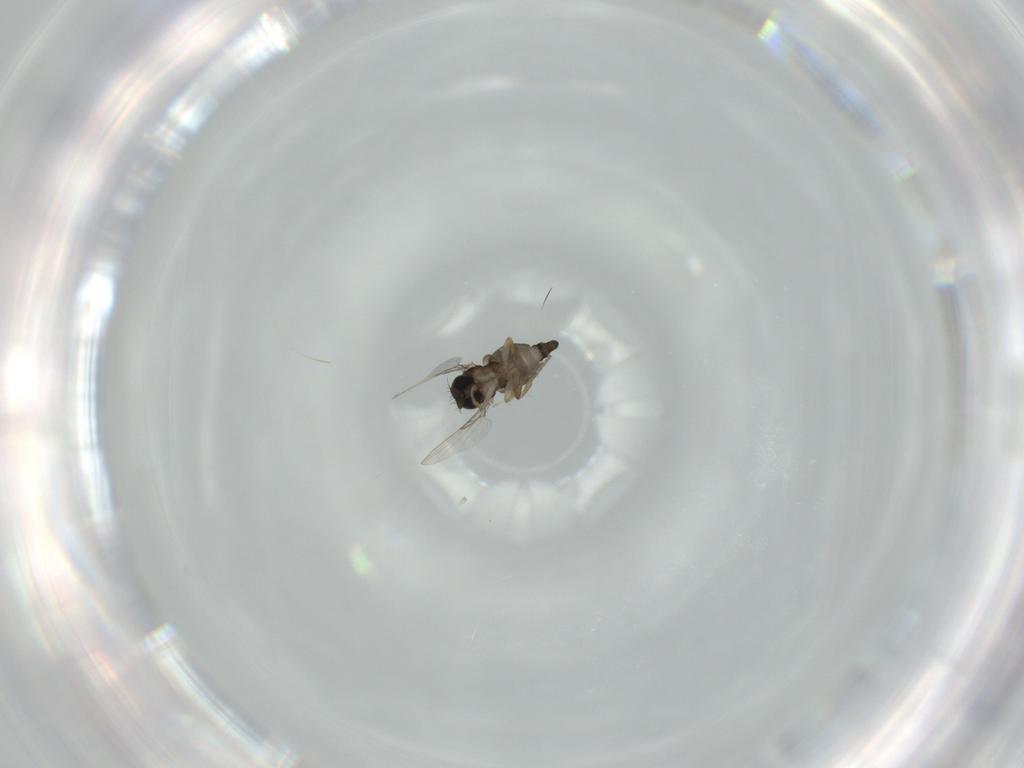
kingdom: Animalia
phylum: Arthropoda
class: Insecta
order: Diptera
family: Phoridae
